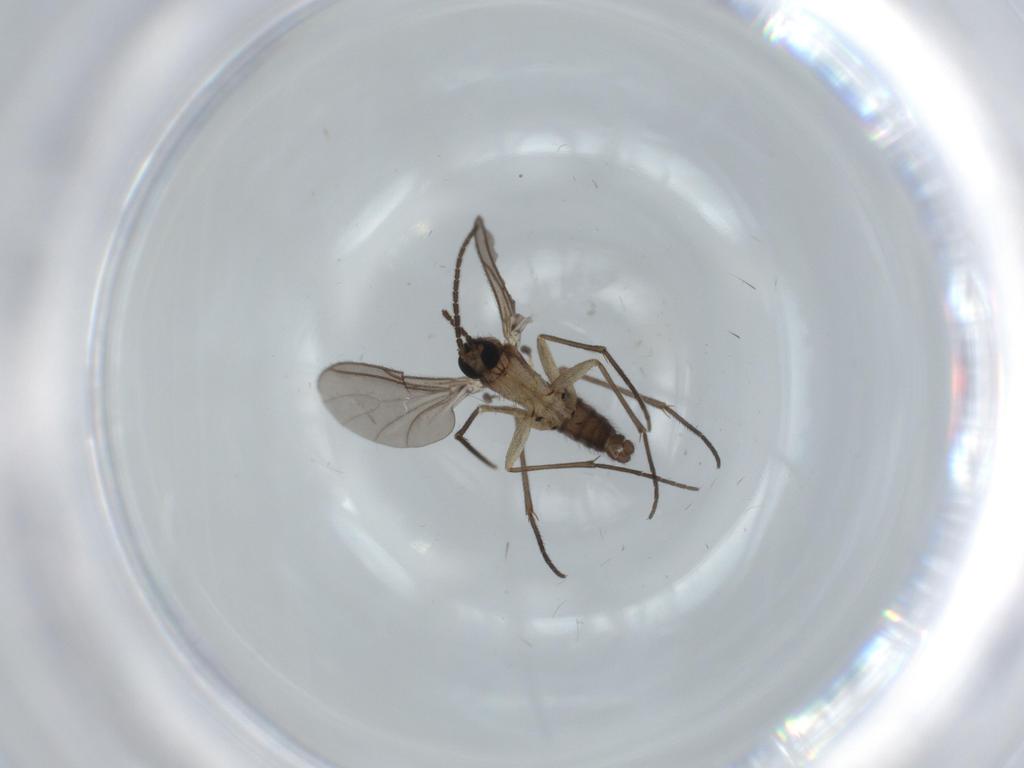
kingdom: Animalia
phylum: Arthropoda
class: Insecta
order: Diptera
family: Sciaridae
